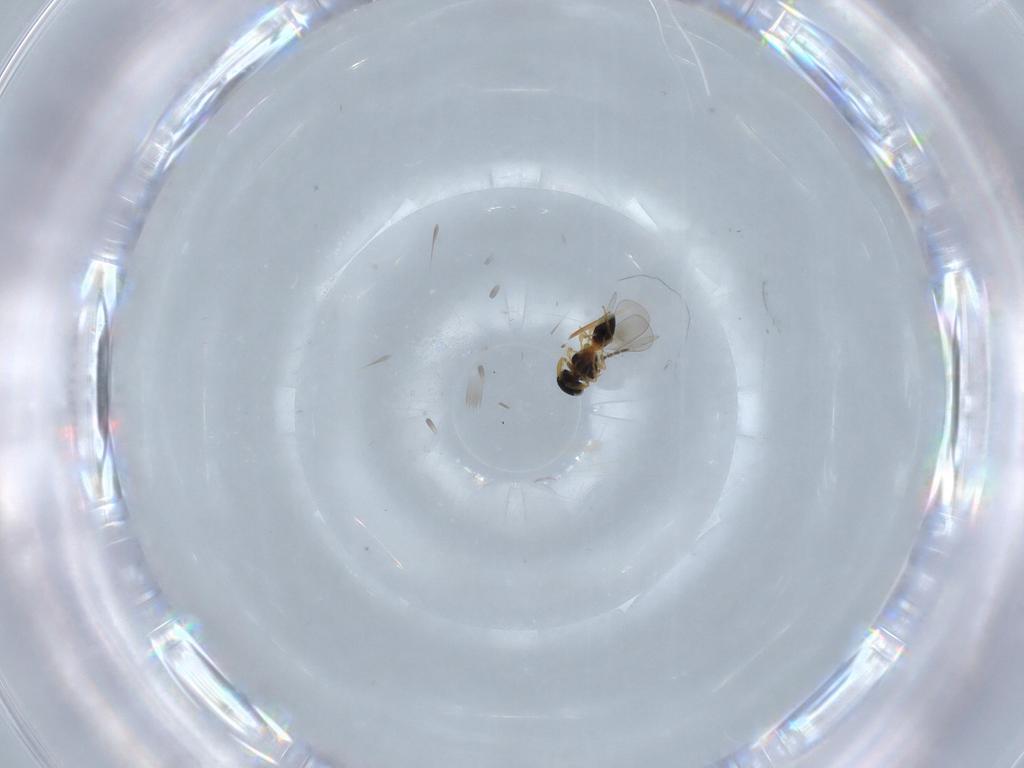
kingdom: Animalia
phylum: Arthropoda
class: Insecta
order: Hymenoptera
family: Platygastridae
